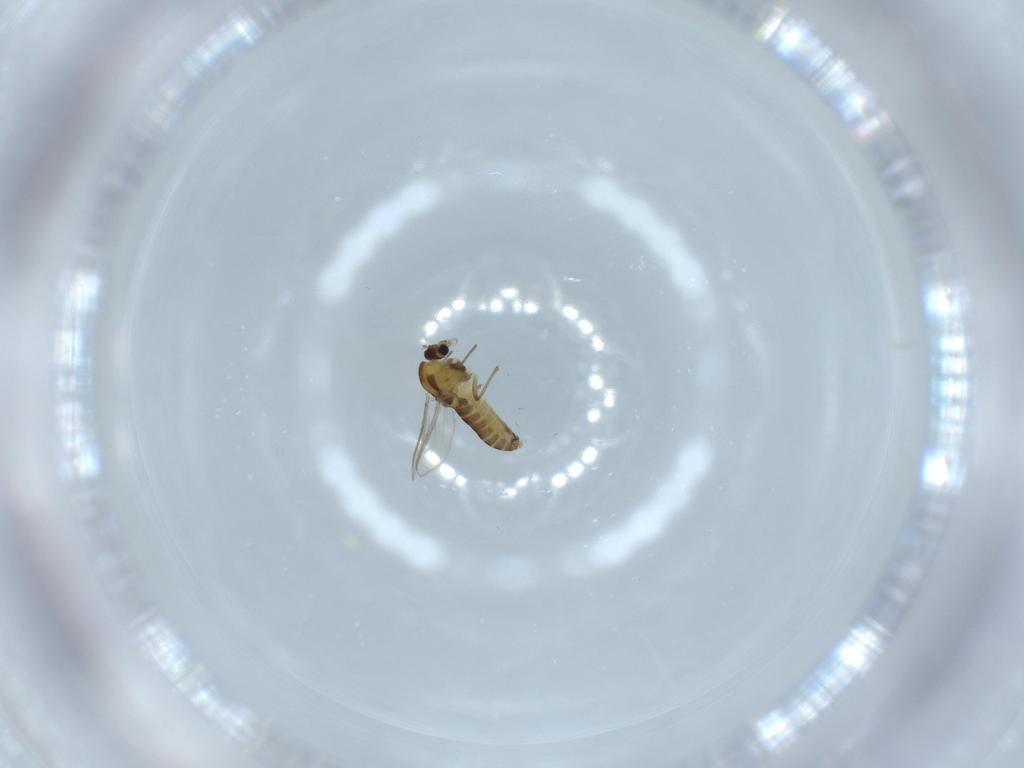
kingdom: Animalia
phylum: Arthropoda
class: Insecta
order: Diptera
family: Chironomidae
